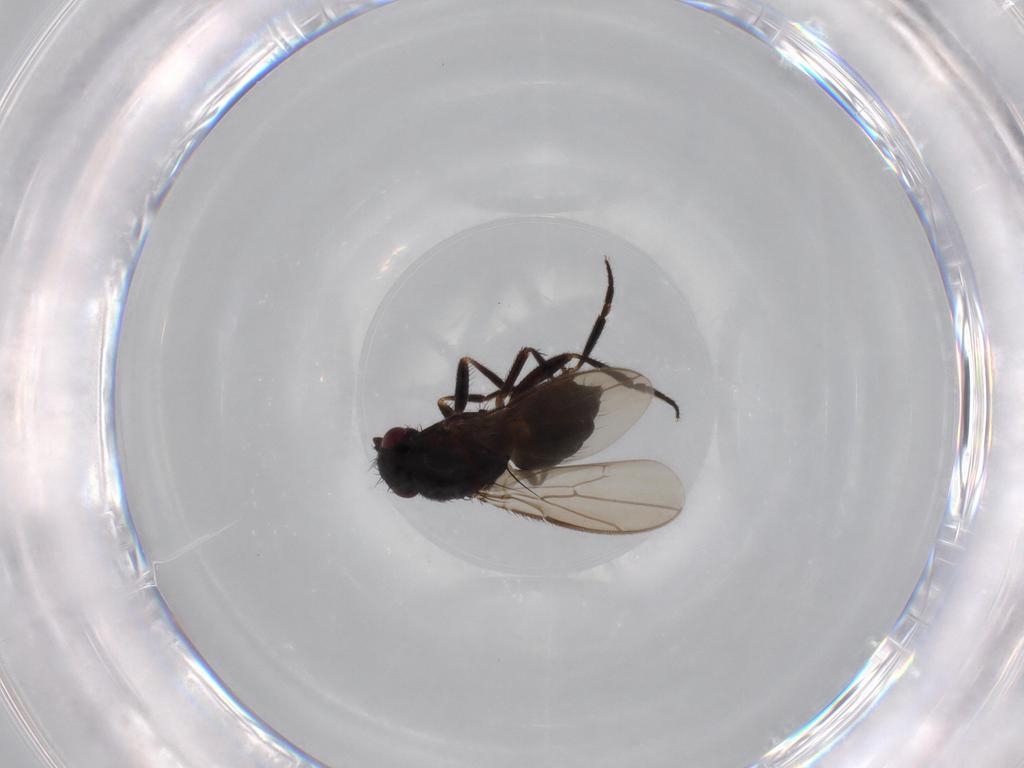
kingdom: Animalia
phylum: Arthropoda
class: Insecta
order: Diptera
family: Sphaeroceridae
